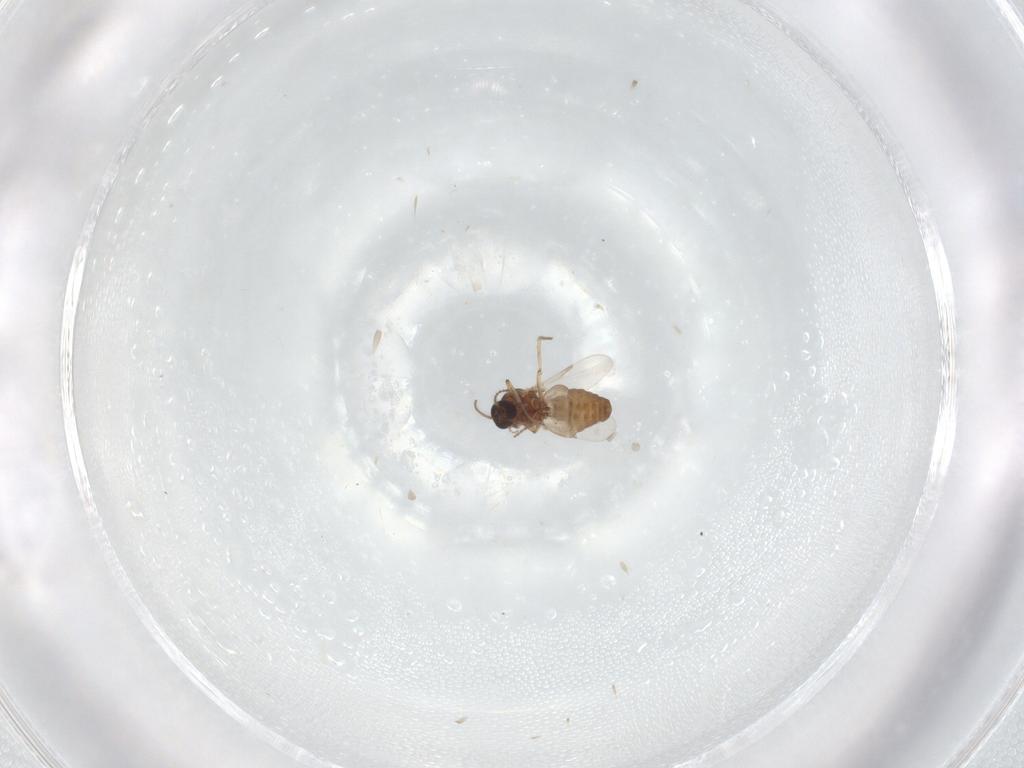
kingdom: Animalia
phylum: Arthropoda
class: Insecta
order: Diptera
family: Ceratopogonidae
